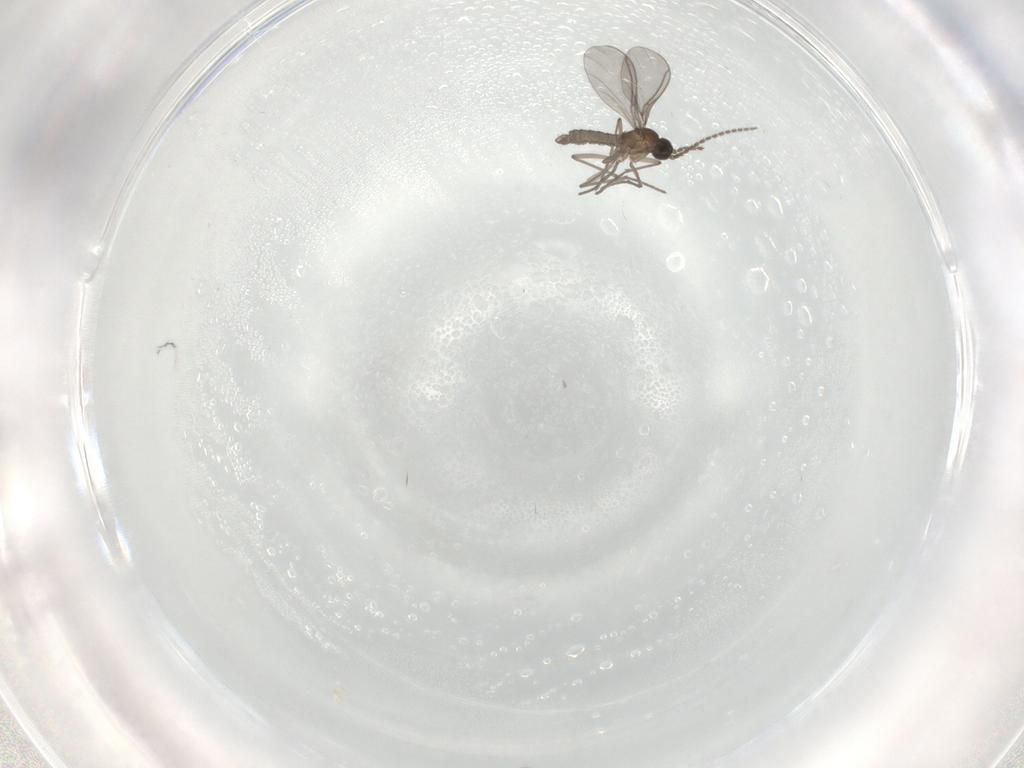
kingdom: Animalia
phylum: Arthropoda
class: Insecta
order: Diptera
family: Sciaridae
